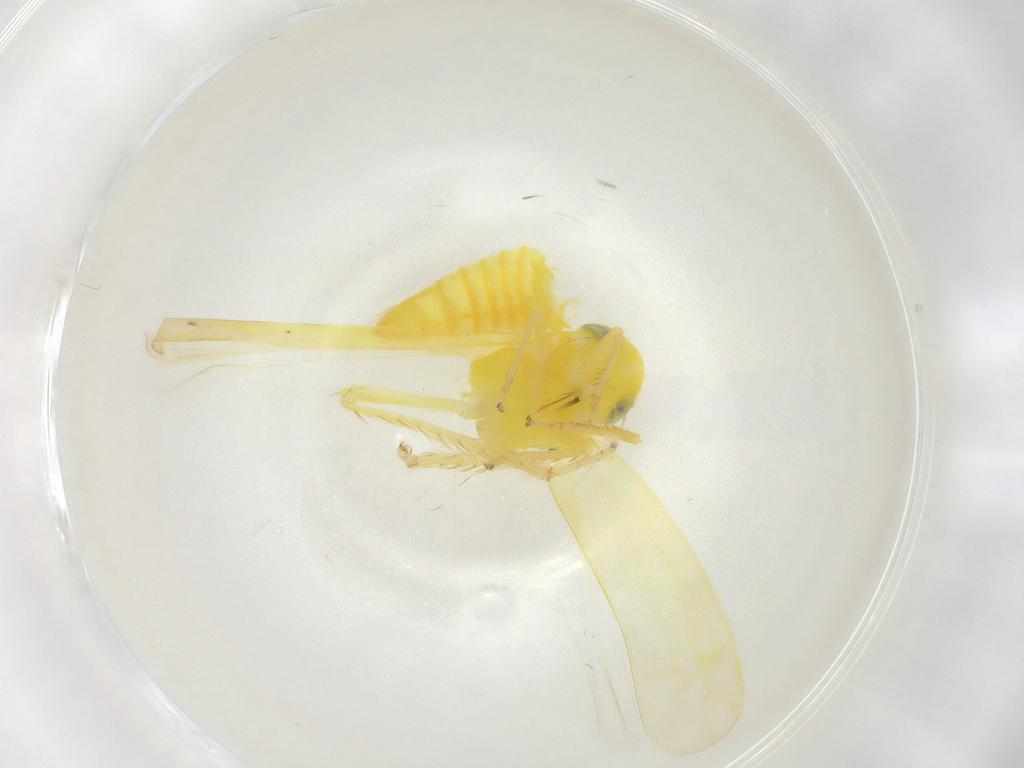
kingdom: Animalia
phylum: Arthropoda
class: Insecta
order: Hemiptera
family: Cicadellidae
